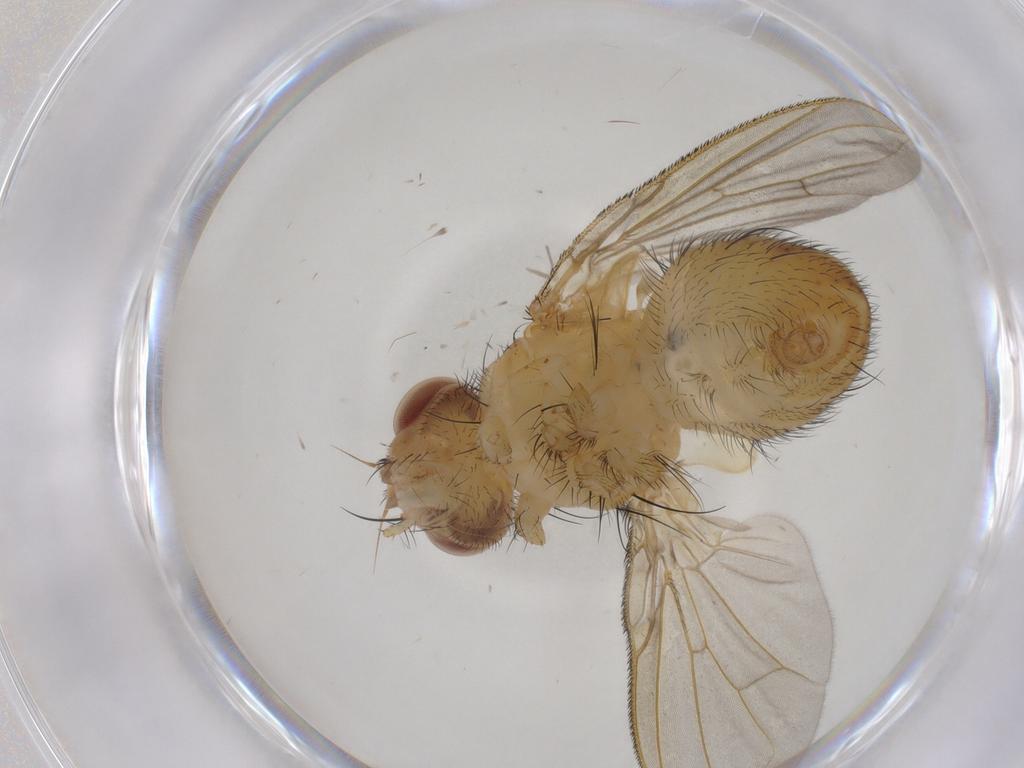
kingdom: Animalia
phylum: Arthropoda
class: Insecta
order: Diptera
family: Tachinidae
